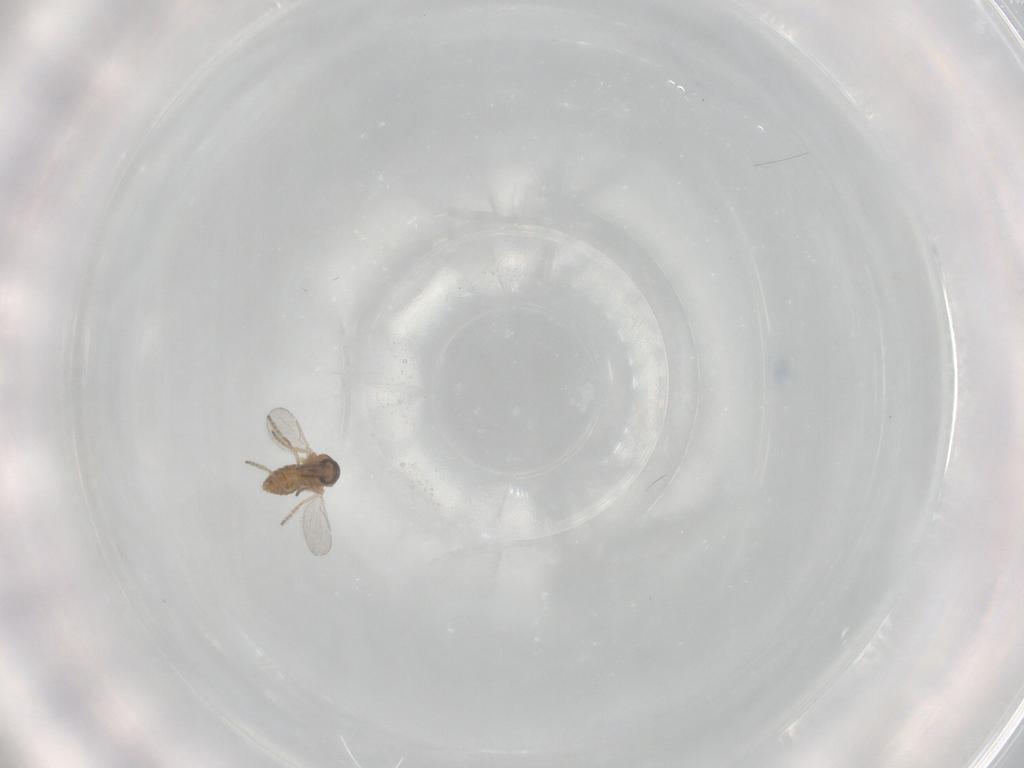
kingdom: Animalia
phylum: Arthropoda
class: Insecta
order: Diptera
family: Ceratopogonidae
